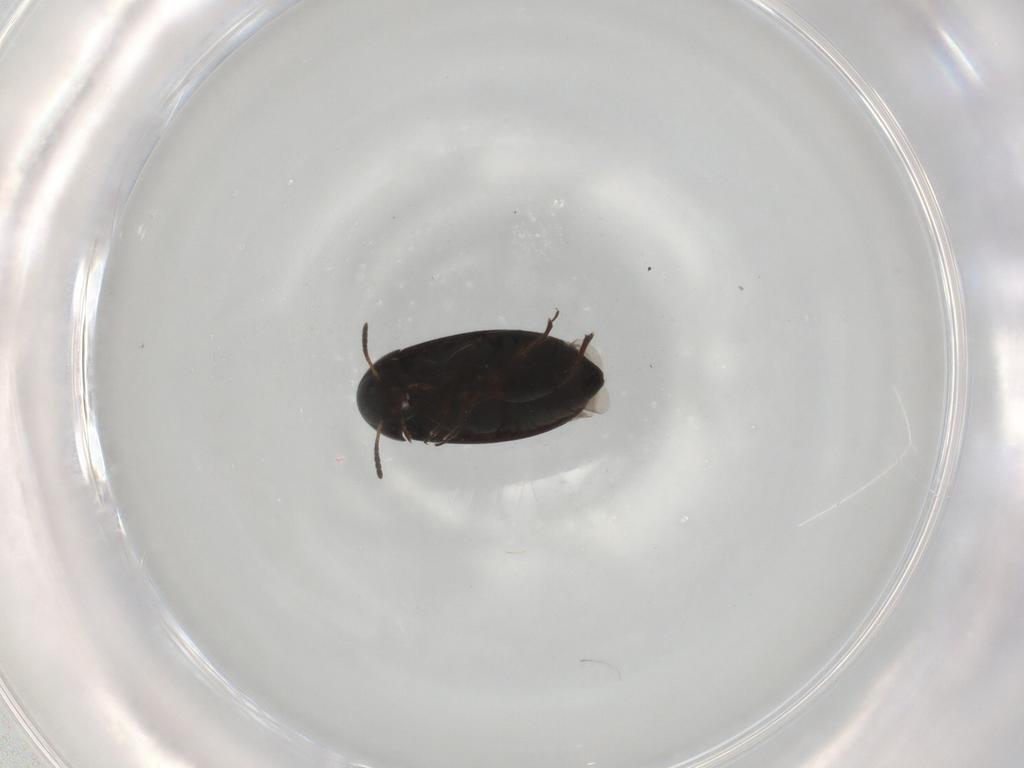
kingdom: Animalia
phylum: Arthropoda
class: Insecta
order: Coleoptera
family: Scraptiidae
